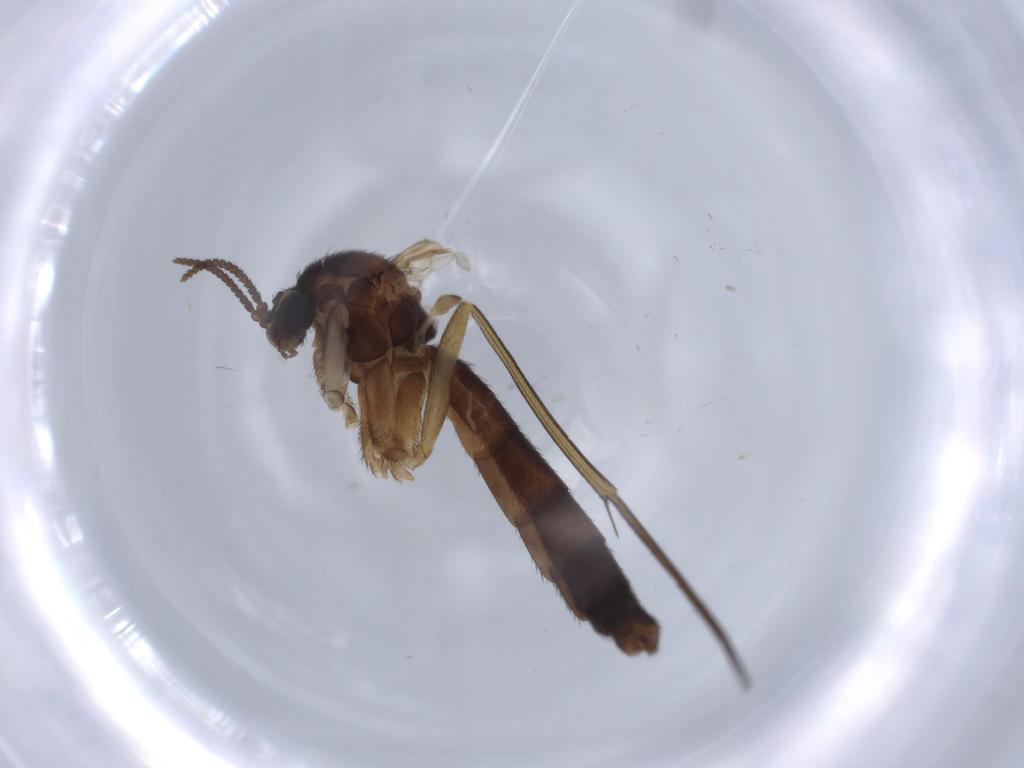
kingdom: Animalia
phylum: Arthropoda
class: Insecta
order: Diptera
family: Keroplatidae
